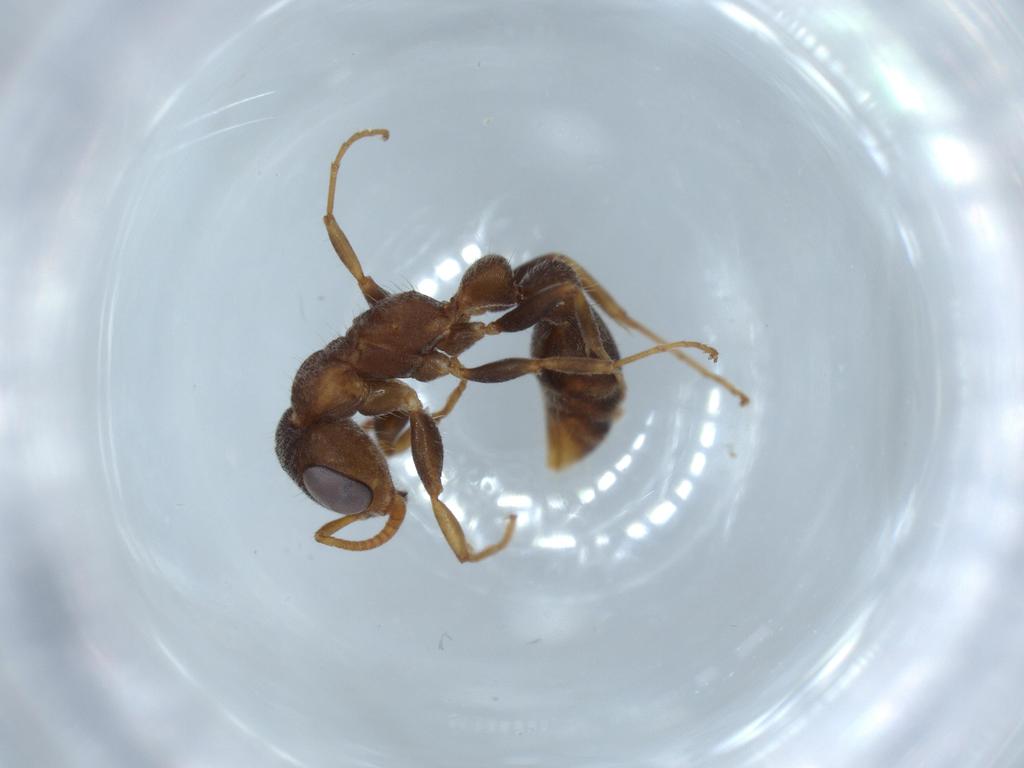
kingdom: Animalia
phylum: Arthropoda
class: Insecta
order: Hymenoptera
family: Formicidae
